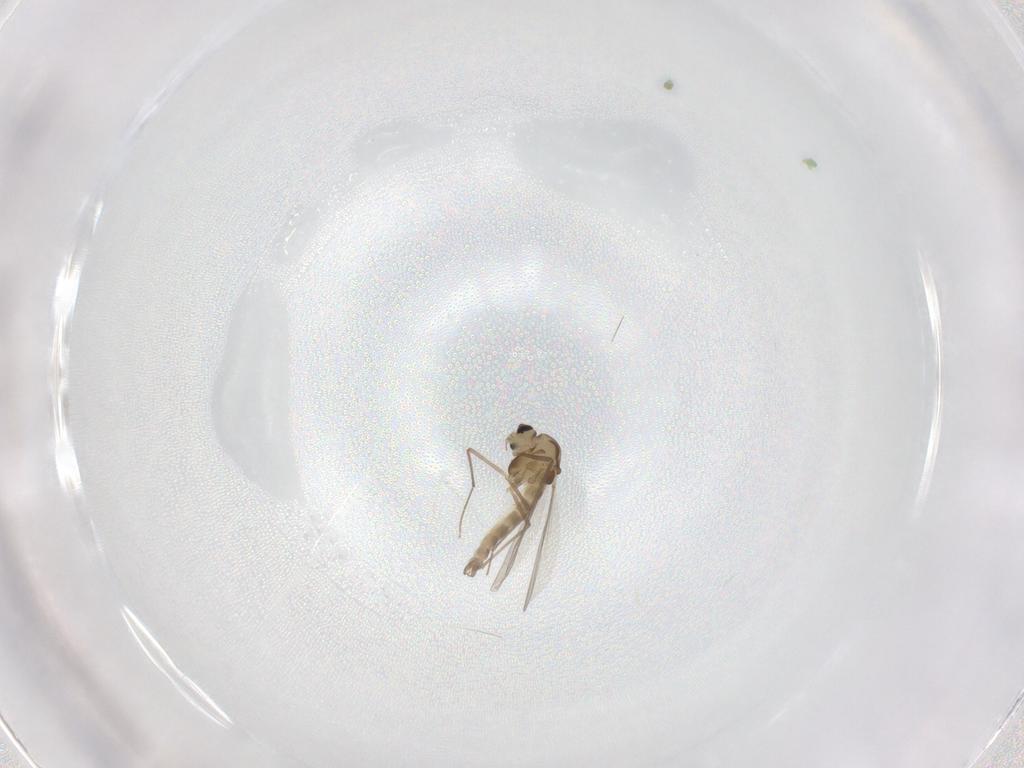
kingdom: Animalia
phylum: Arthropoda
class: Insecta
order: Diptera
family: Chironomidae
